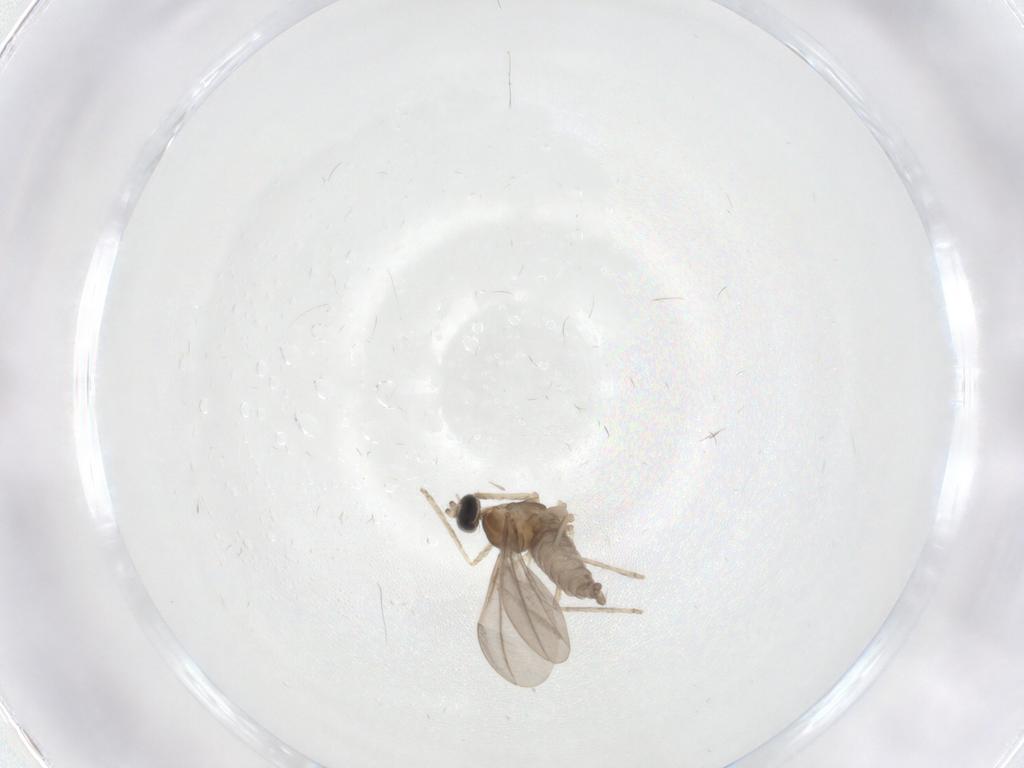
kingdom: Animalia
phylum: Arthropoda
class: Insecta
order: Diptera
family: Cecidomyiidae
